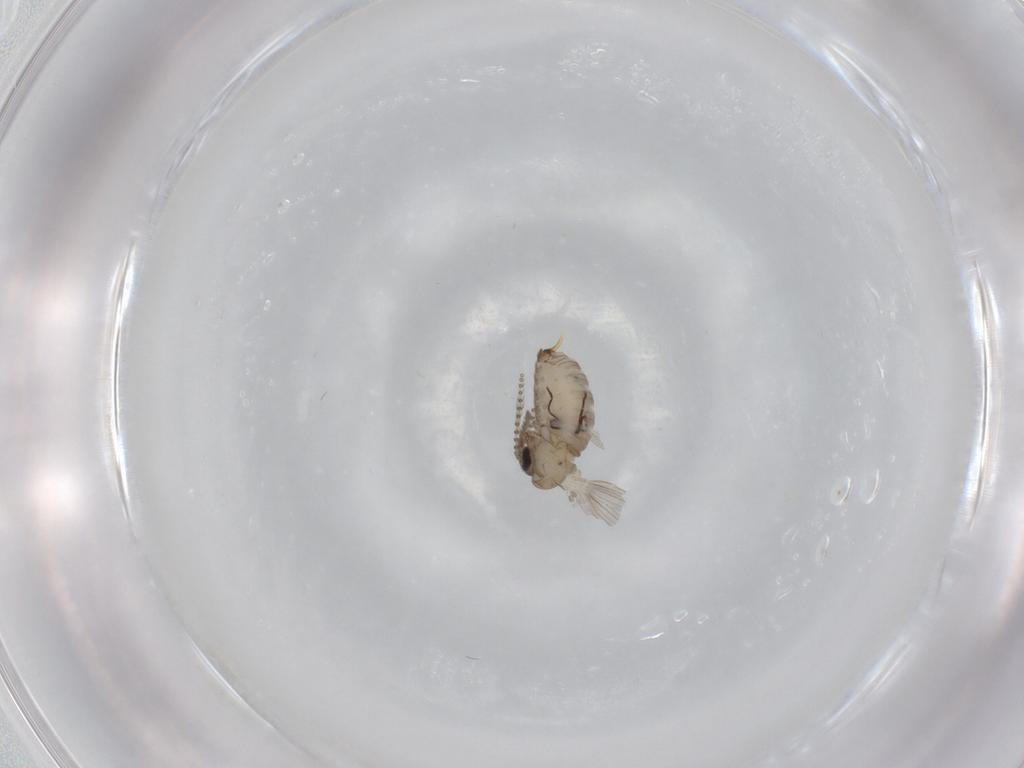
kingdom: Animalia
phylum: Arthropoda
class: Insecta
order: Diptera
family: Psychodidae
